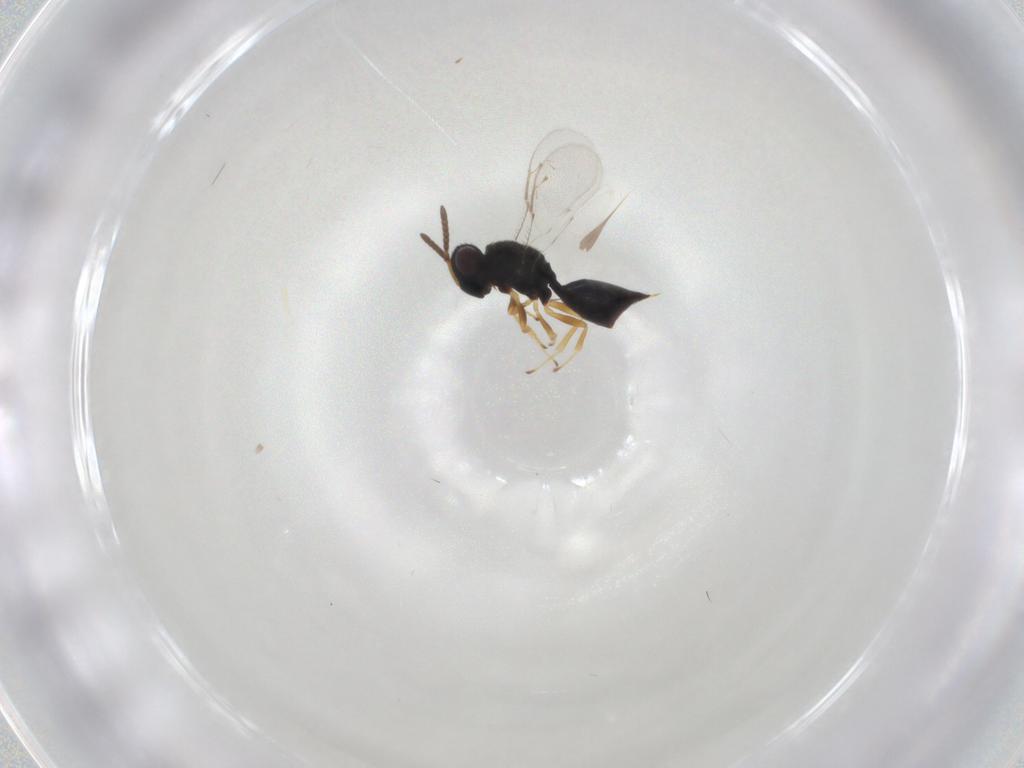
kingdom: Animalia
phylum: Arthropoda
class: Insecta
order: Hymenoptera
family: Pteromalidae
